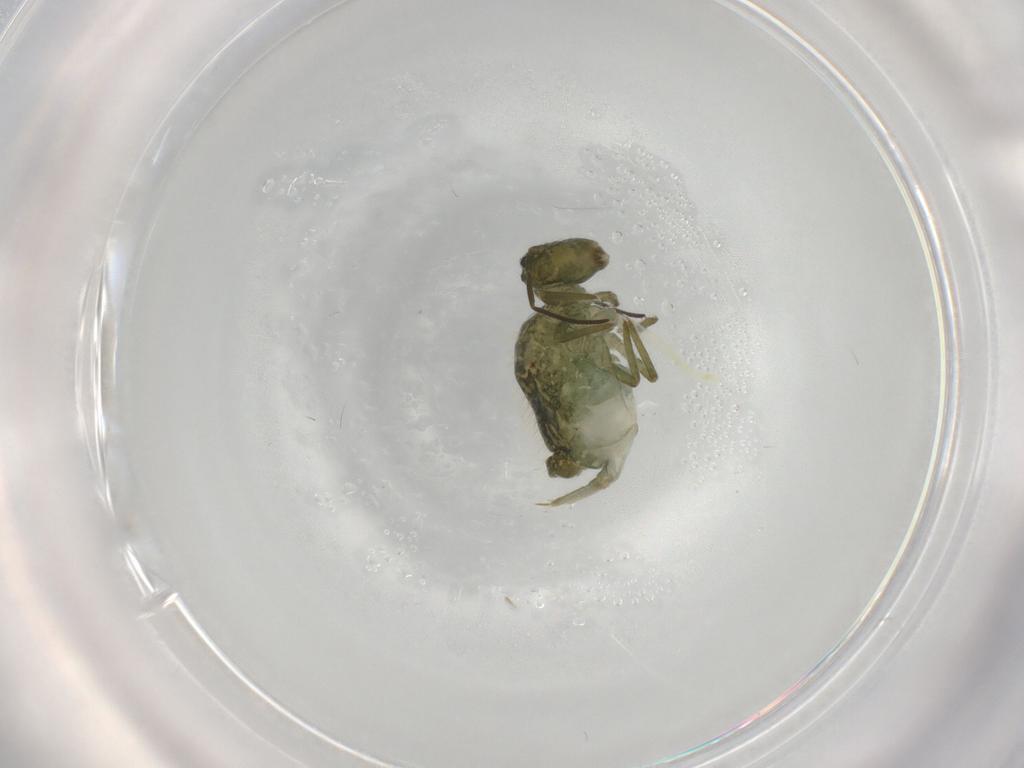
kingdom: Animalia
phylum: Arthropoda
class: Collembola
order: Symphypleona
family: Sminthuridae
